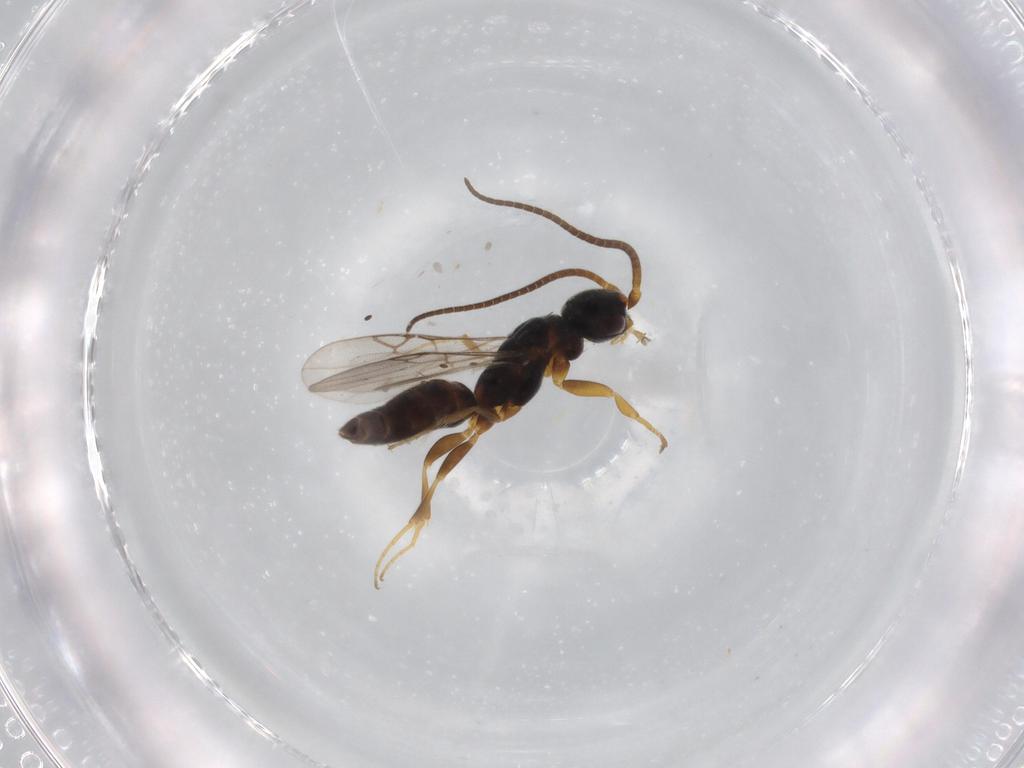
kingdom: Animalia
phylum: Arthropoda
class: Insecta
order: Hymenoptera
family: Sclerogibbidae
